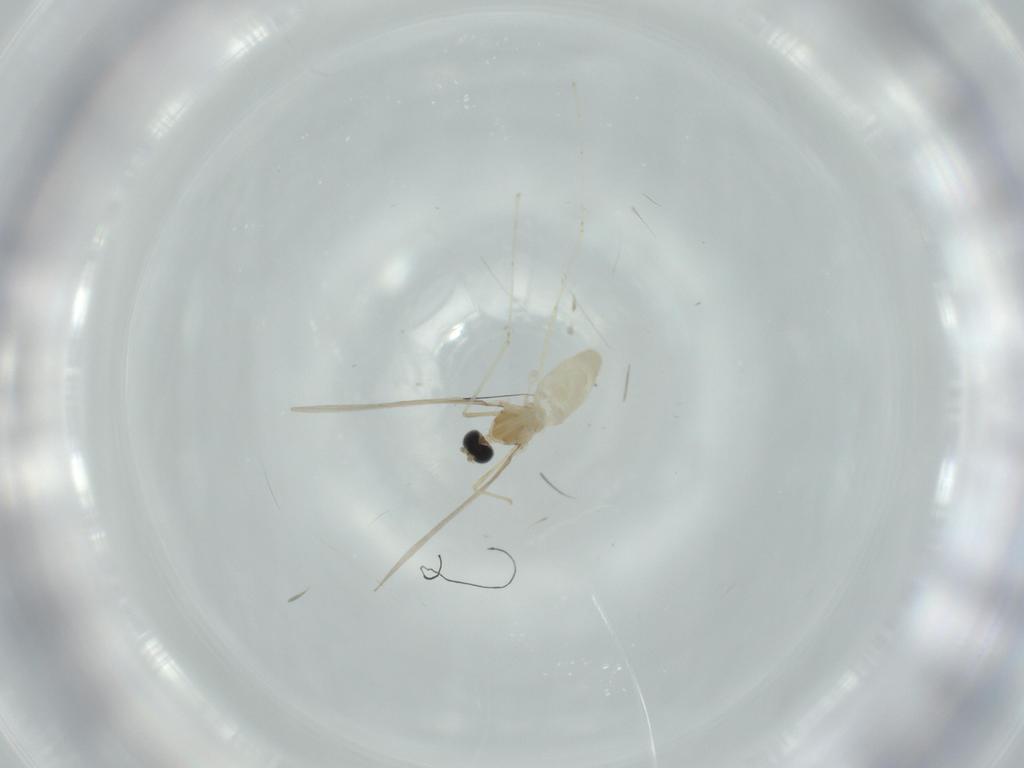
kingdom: Animalia
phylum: Arthropoda
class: Insecta
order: Diptera
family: Cecidomyiidae
